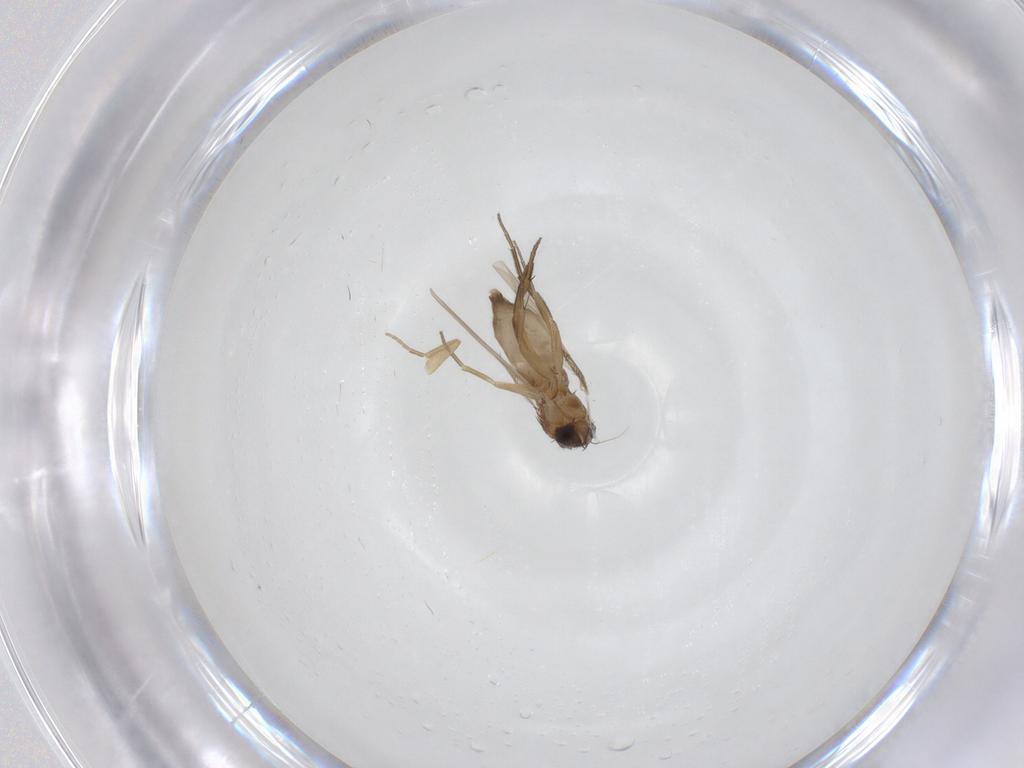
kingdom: Animalia
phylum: Arthropoda
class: Insecta
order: Diptera
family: Phoridae
